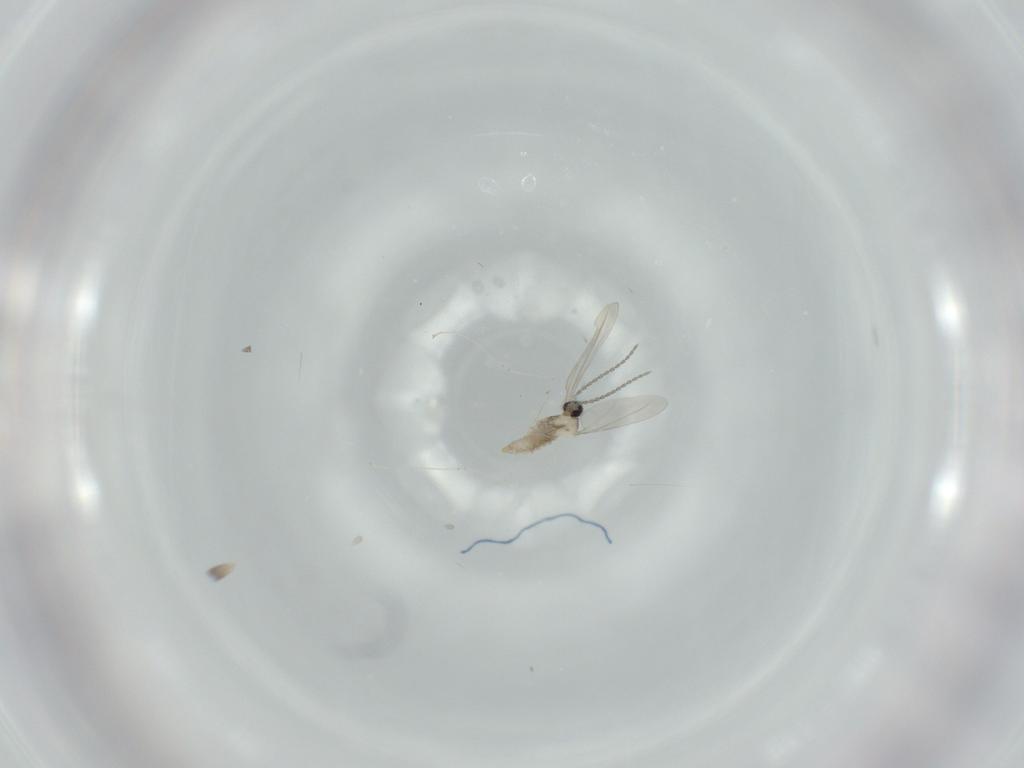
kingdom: Animalia
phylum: Arthropoda
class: Insecta
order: Diptera
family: Cecidomyiidae
